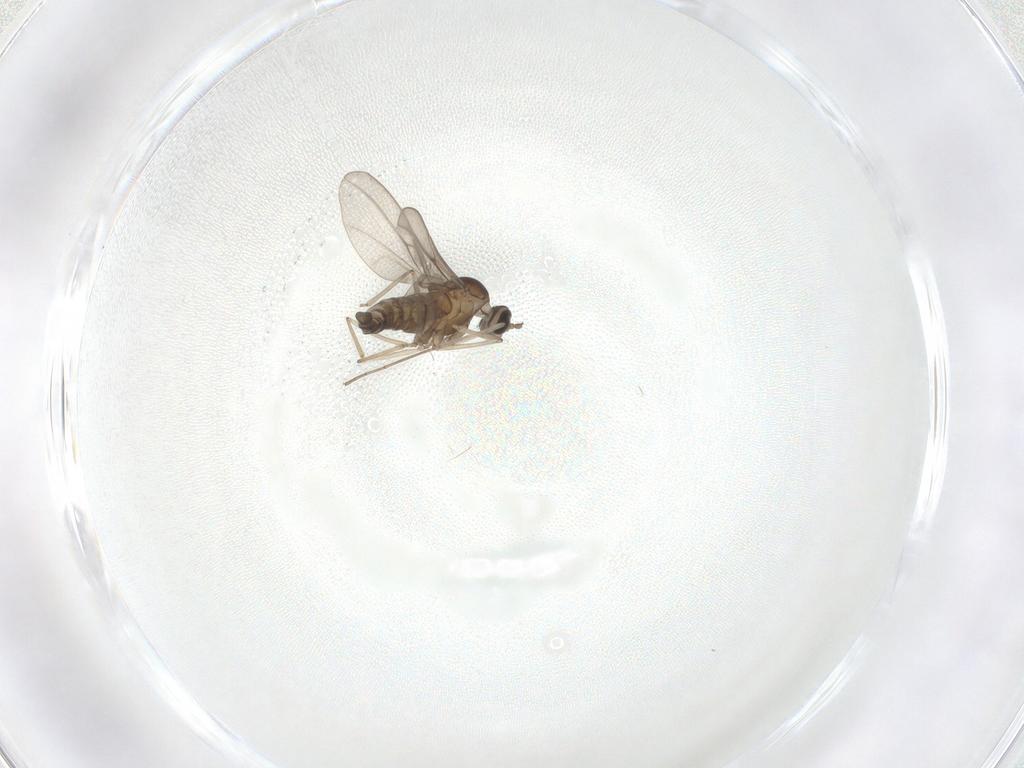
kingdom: Animalia
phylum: Arthropoda
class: Insecta
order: Diptera
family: Cecidomyiidae
